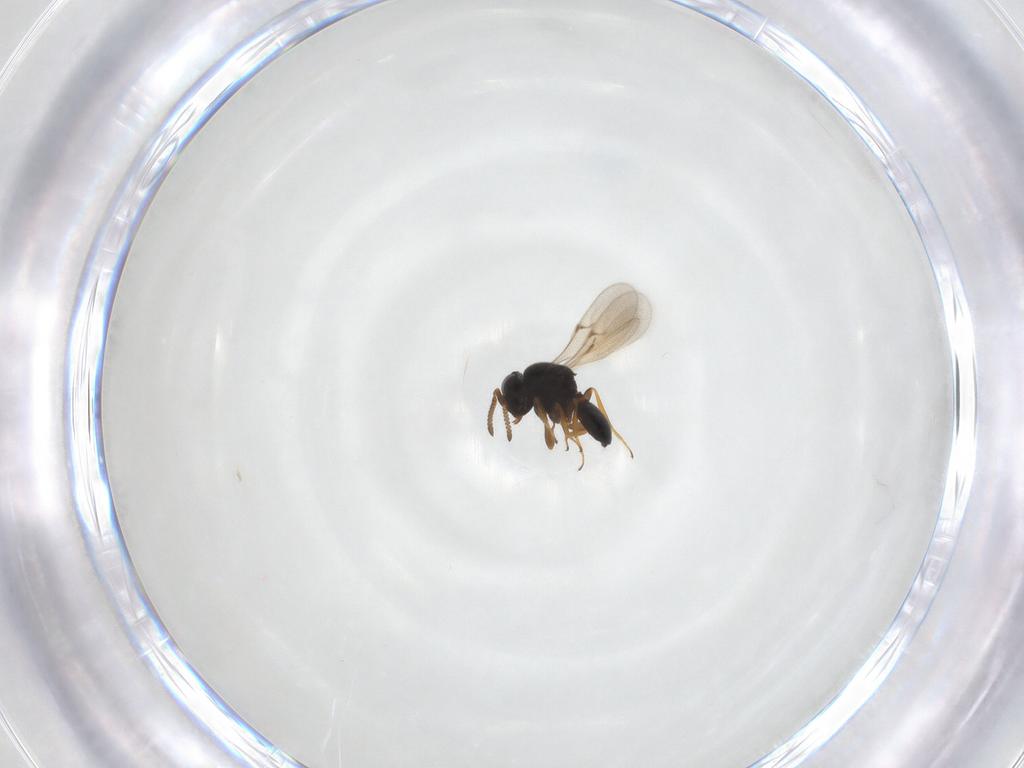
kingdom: Animalia
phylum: Arthropoda
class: Insecta
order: Hymenoptera
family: Scelionidae
